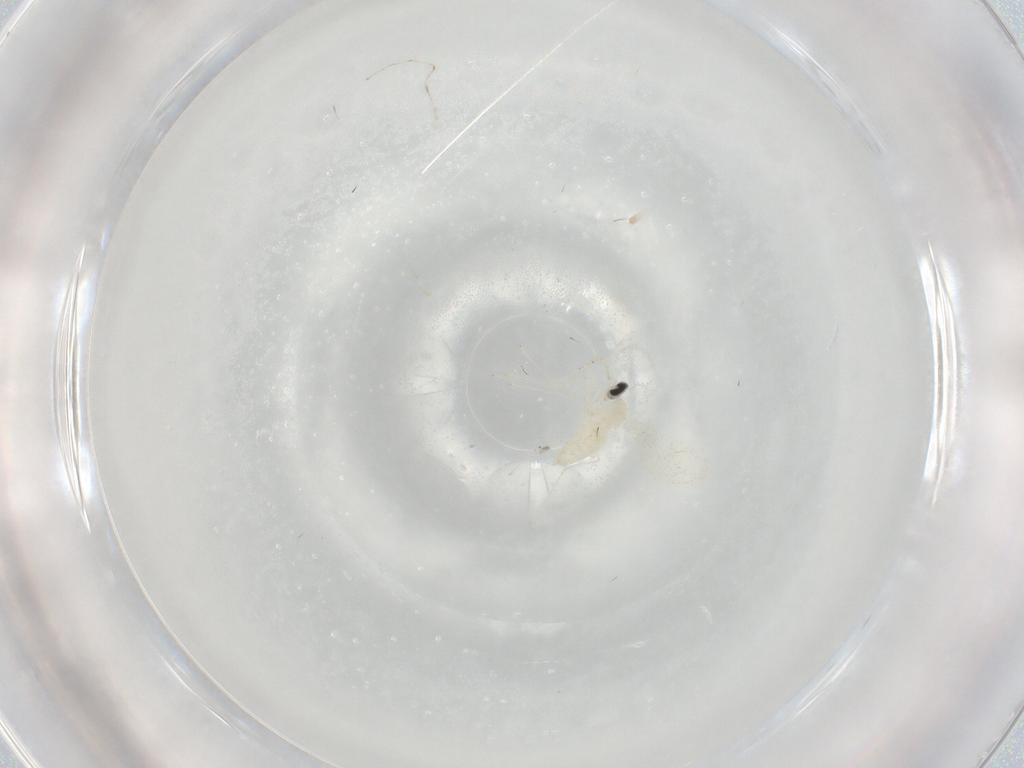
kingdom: Animalia
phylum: Arthropoda
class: Insecta
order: Diptera
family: Cecidomyiidae
